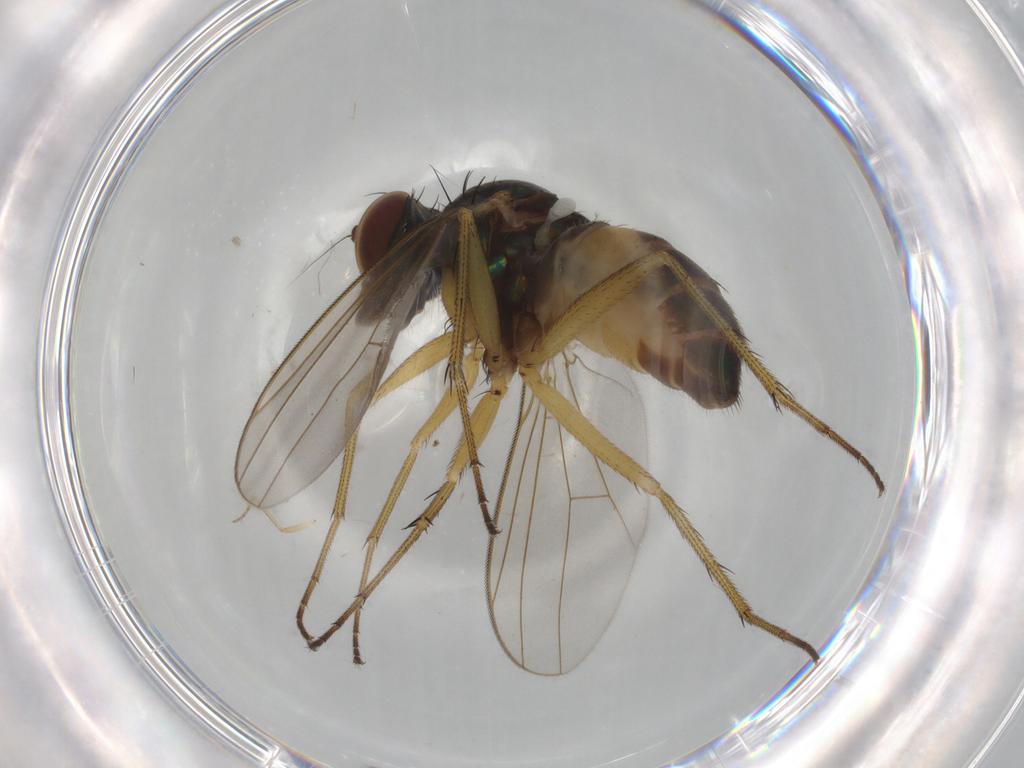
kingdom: Animalia
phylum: Arthropoda
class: Insecta
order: Diptera
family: Ceratopogonidae
